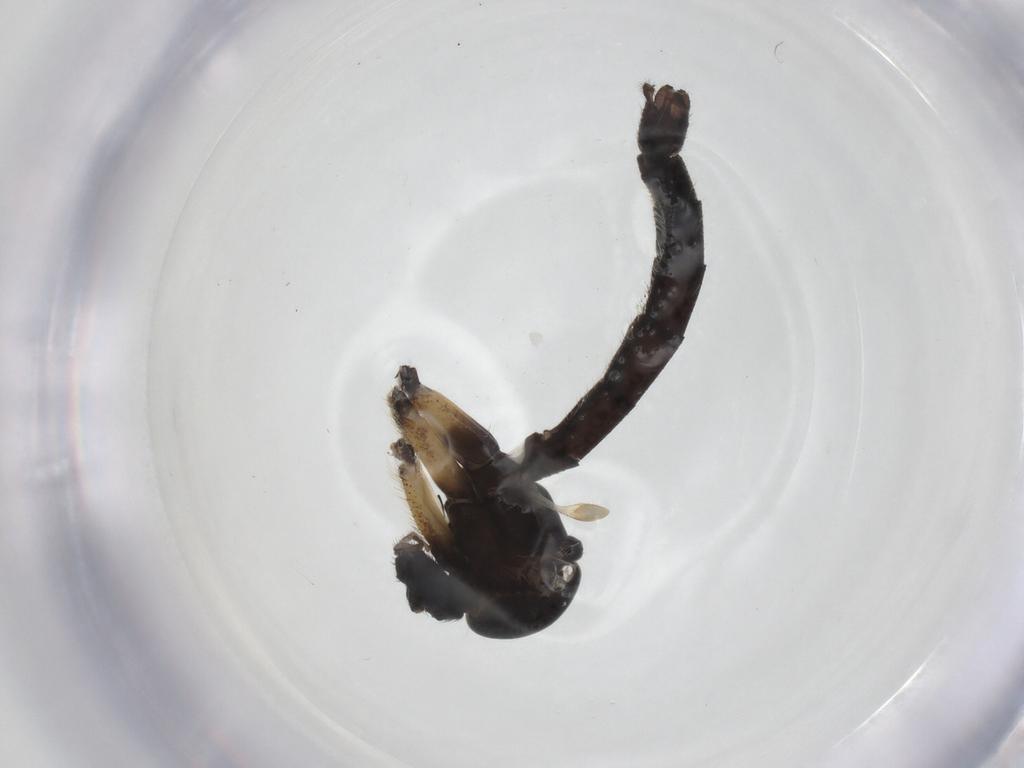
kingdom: Animalia
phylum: Arthropoda
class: Insecta
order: Diptera
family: Mycetophilidae
